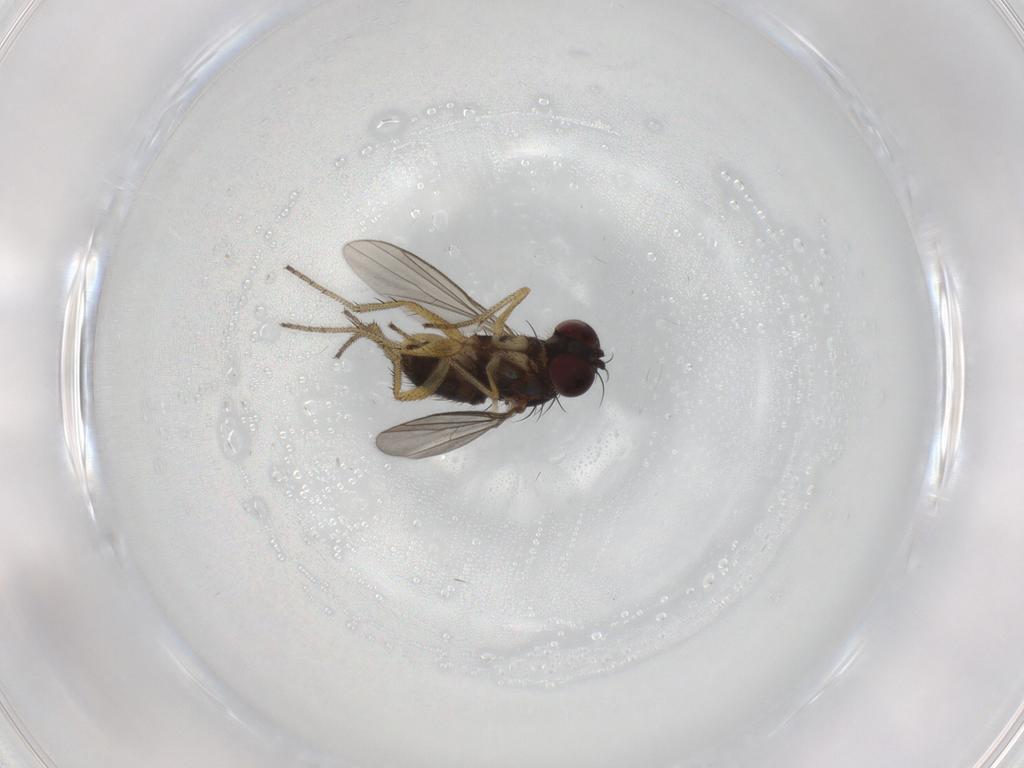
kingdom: Animalia
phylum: Arthropoda
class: Insecta
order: Diptera
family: Dolichopodidae
